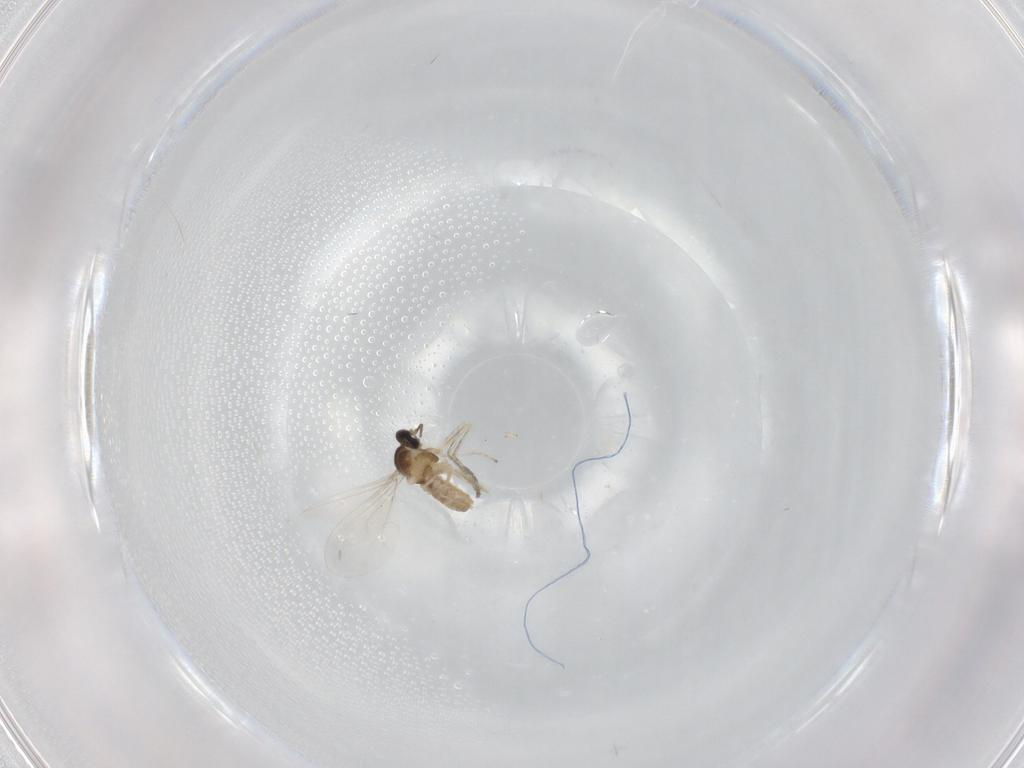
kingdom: Animalia
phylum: Arthropoda
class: Insecta
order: Diptera
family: Cecidomyiidae
